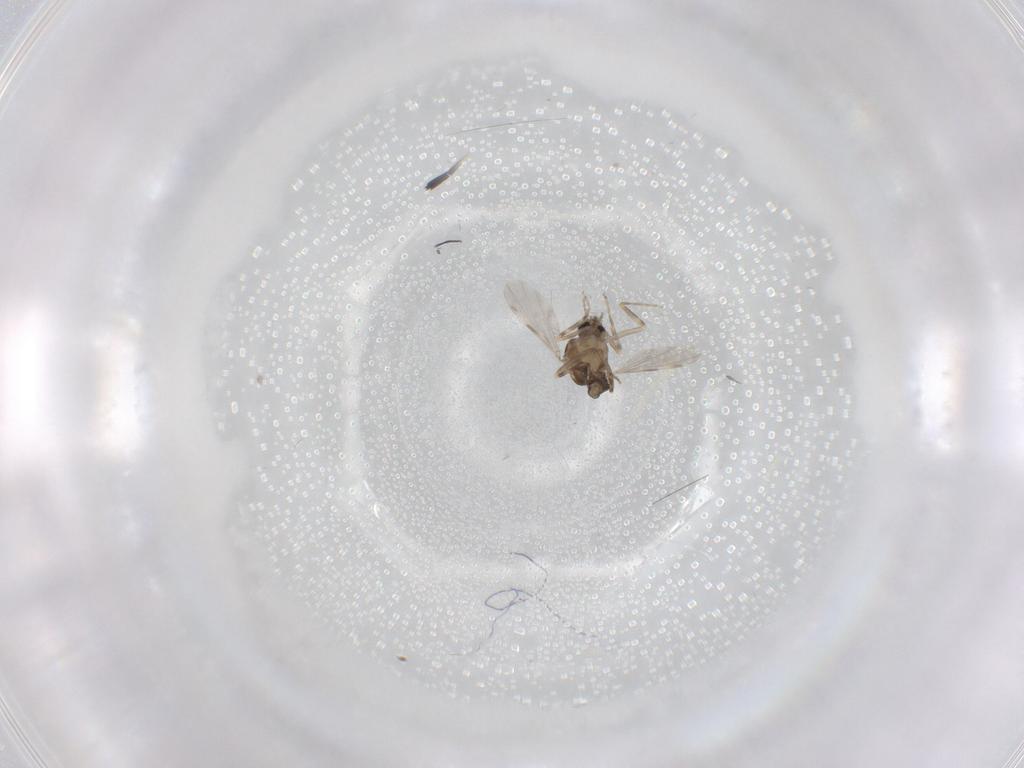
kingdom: Animalia
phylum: Arthropoda
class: Insecta
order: Diptera
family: Ceratopogonidae
